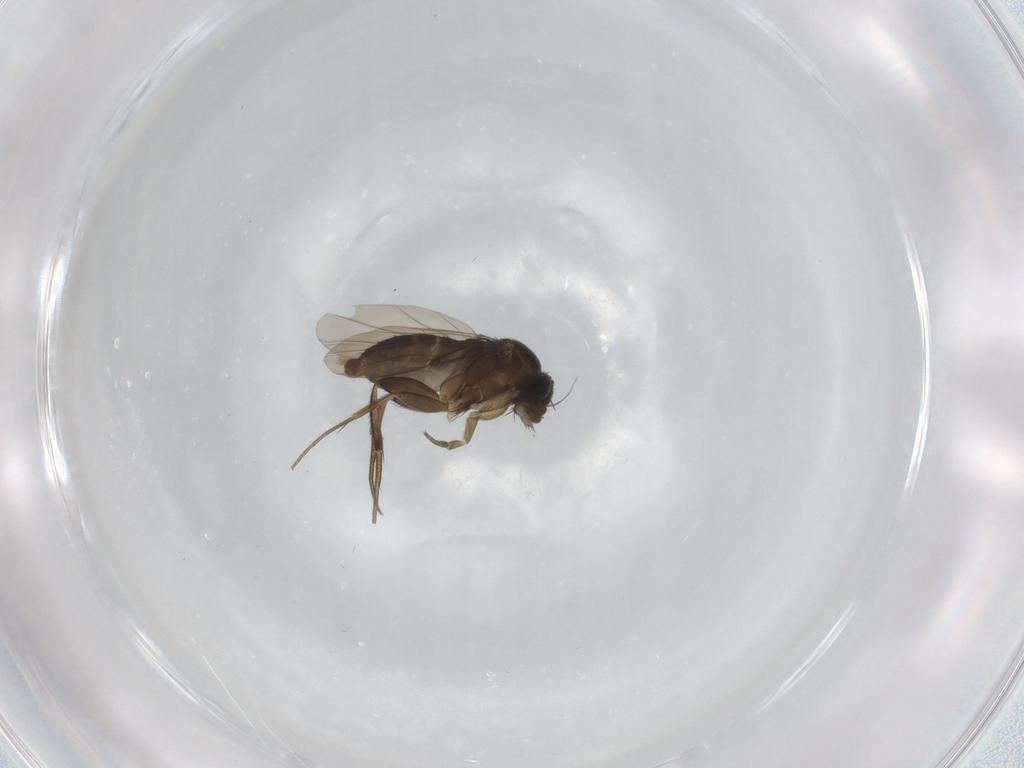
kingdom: Animalia
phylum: Arthropoda
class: Insecta
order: Diptera
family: Phoridae
